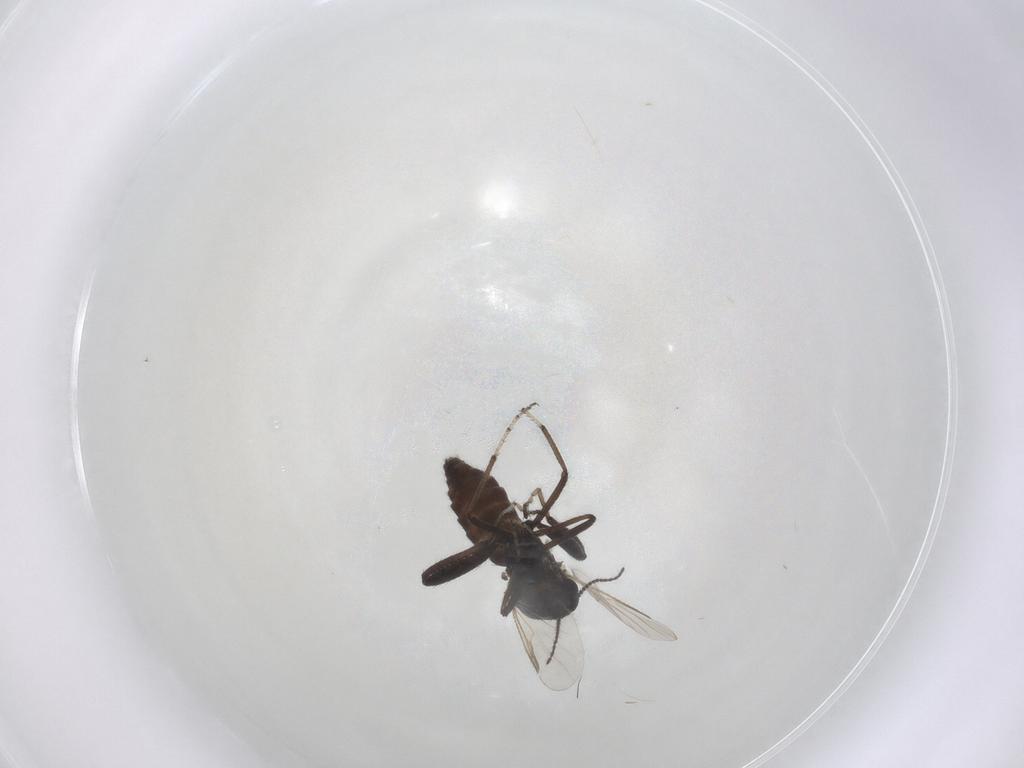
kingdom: Animalia
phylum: Arthropoda
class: Insecta
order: Diptera
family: Ceratopogonidae
